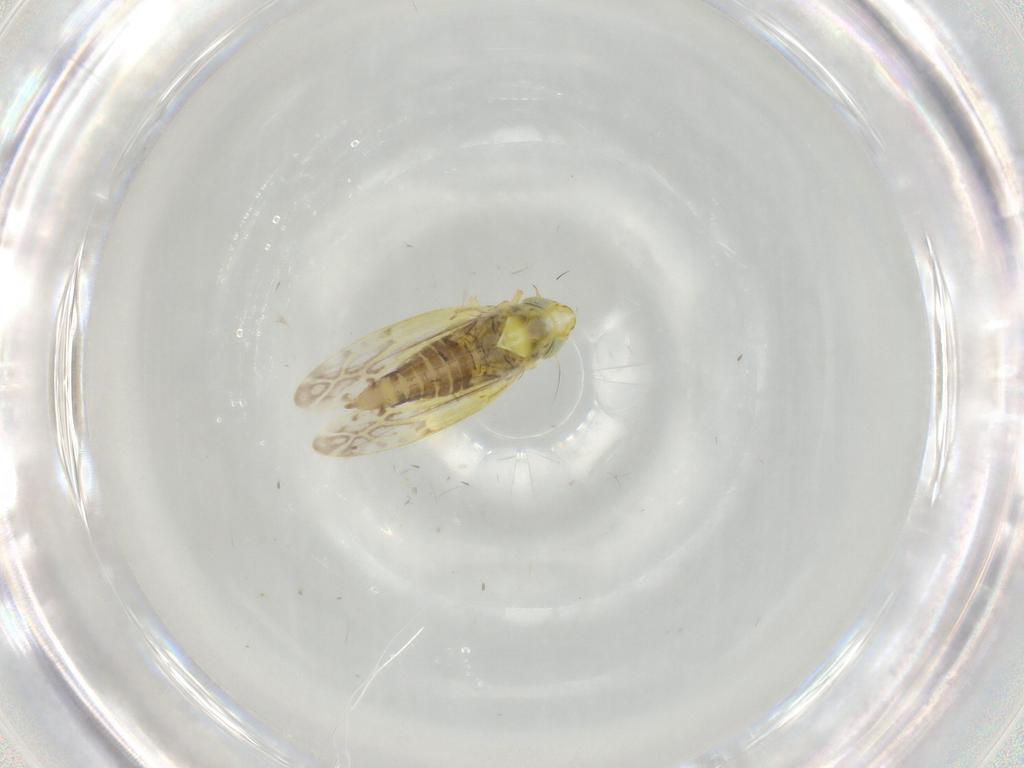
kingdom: Animalia
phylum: Arthropoda
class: Insecta
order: Hemiptera
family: Cicadellidae
